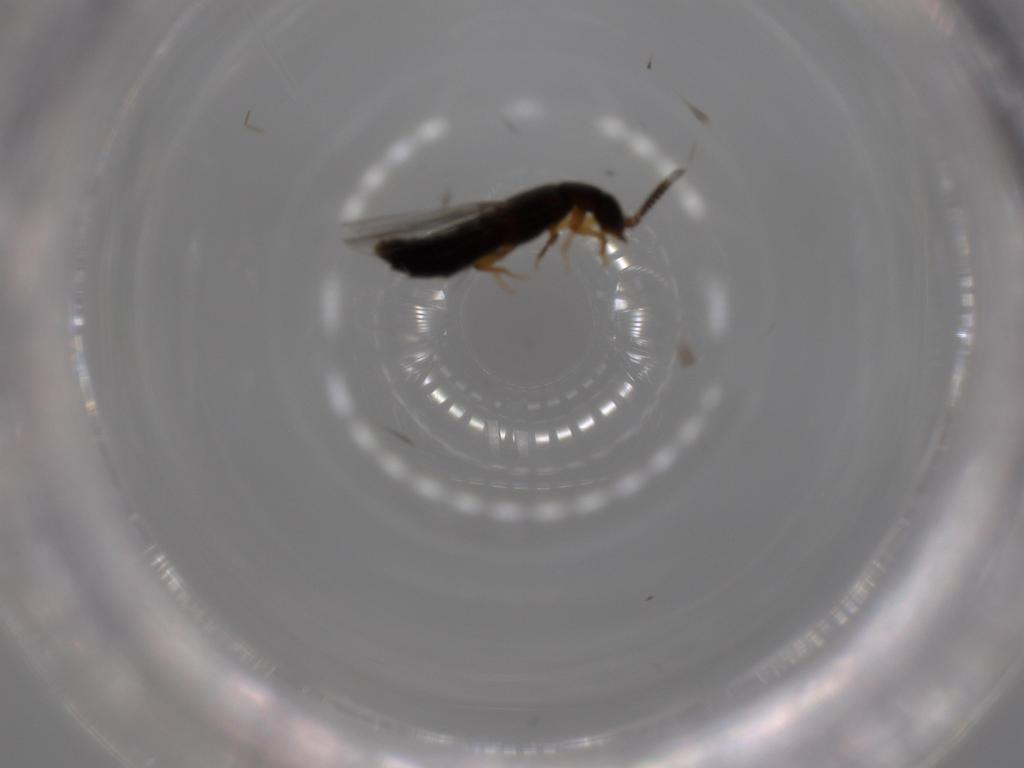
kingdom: Animalia
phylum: Arthropoda
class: Insecta
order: Coleoptera
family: Staphylinidae
